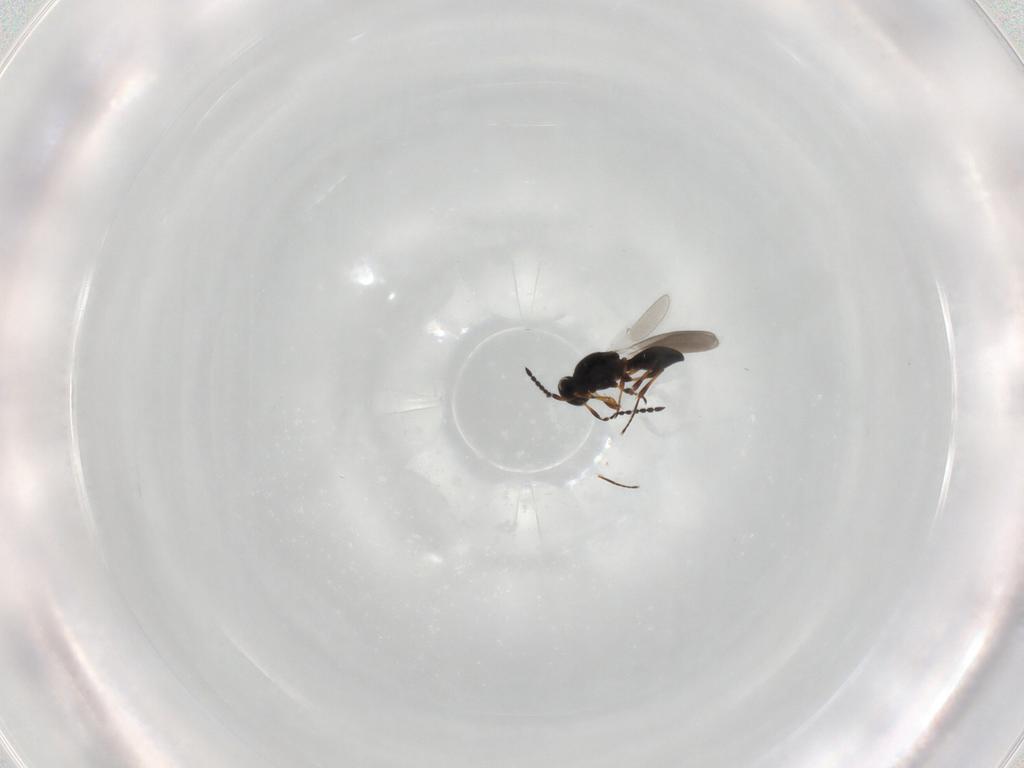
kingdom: Animalia
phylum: Arthropoda
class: Insecta
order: Hymenoptera
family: Platygastridae
